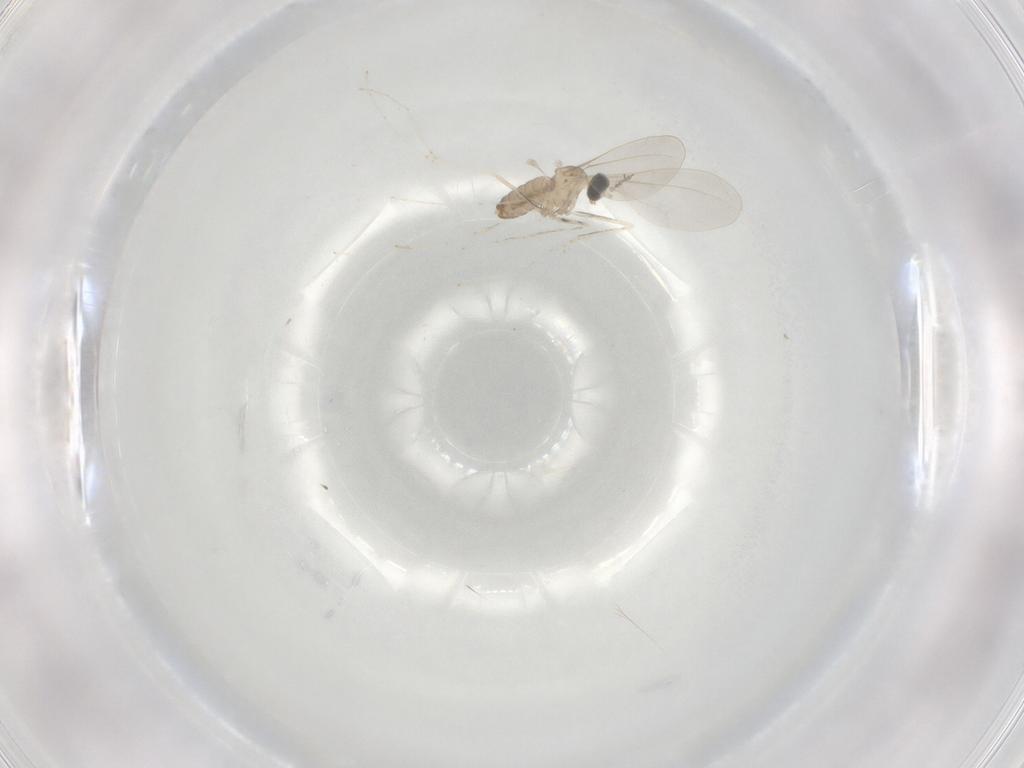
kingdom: Animalia
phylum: Arthropoda
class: Insecta
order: Diptera
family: Cecidomyiidae
